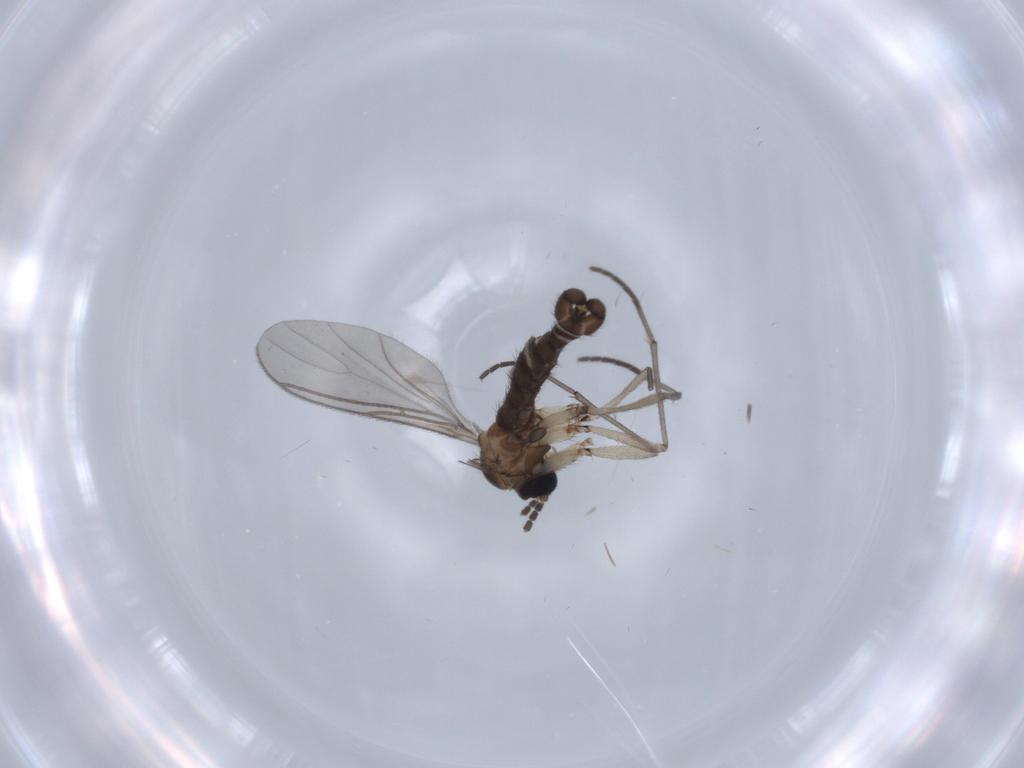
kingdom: Animalia
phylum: Arthropoda
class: Insecta
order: Diptera
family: Sciaridae
